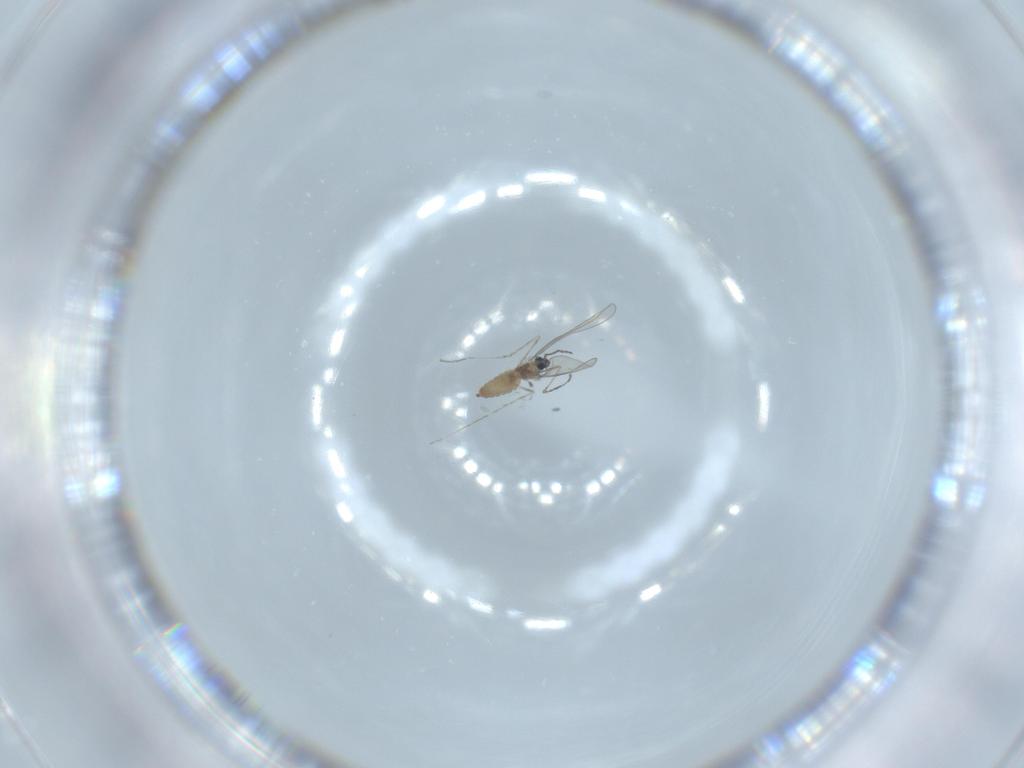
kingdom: Animalia
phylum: Arthropoda
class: Insecta
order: Diptera
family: Cecidomyiidae
